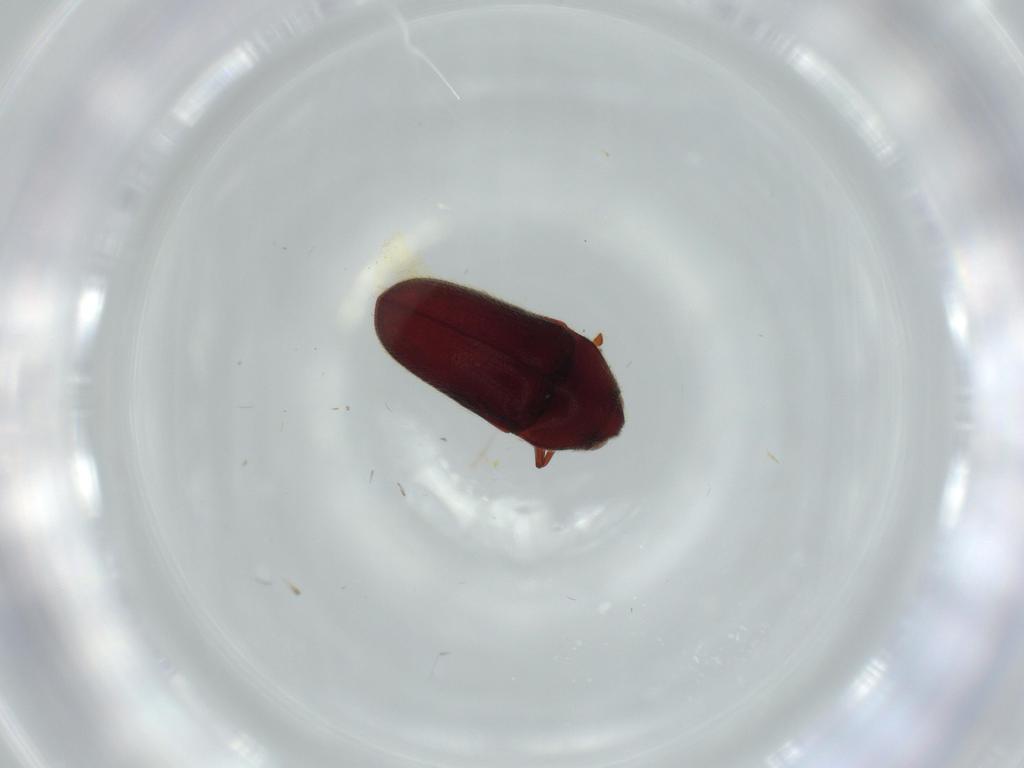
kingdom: Animalia
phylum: Arthropoda
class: Insecta
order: Coleoptera
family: Throscidae
